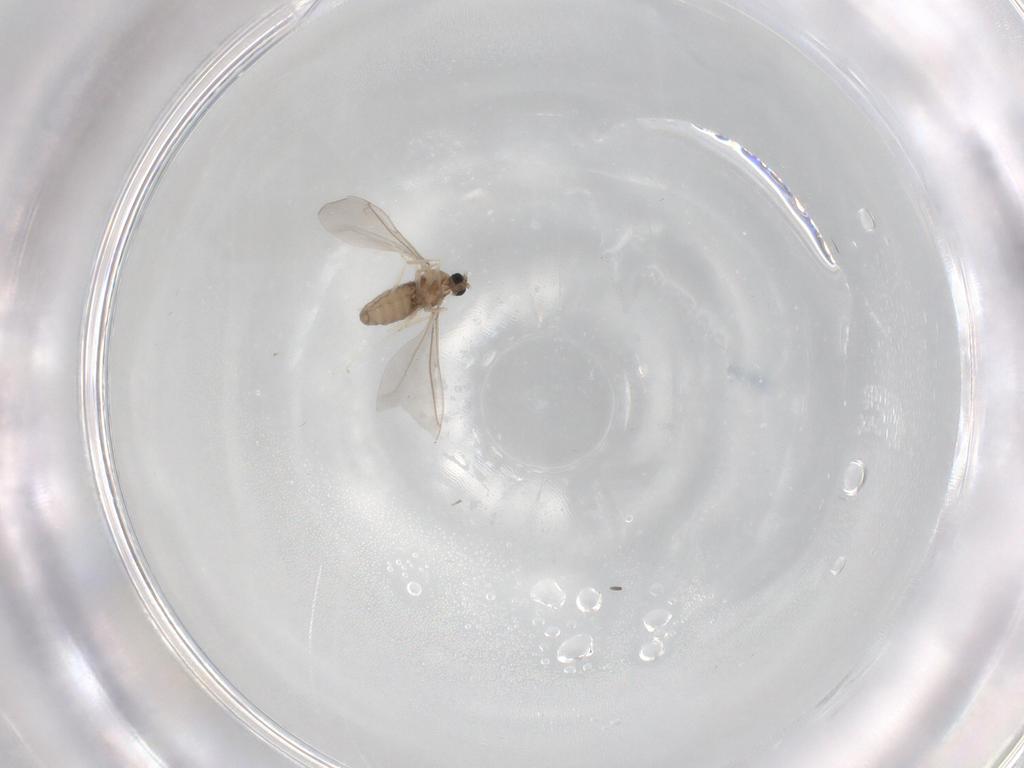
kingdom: Animalia
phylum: Arthropoda
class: Insecta
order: Diptera
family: Cecidomyiidae
